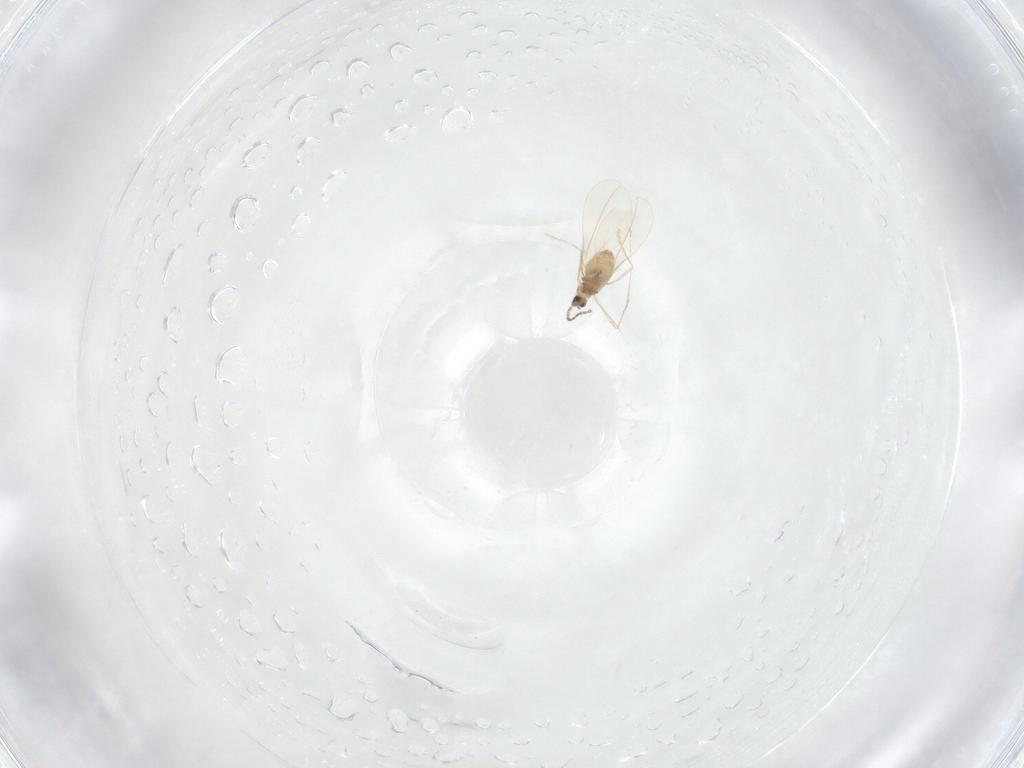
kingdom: Animalia
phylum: Arthropoda
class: Insecta
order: Diptera
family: Cecidomyiidae
